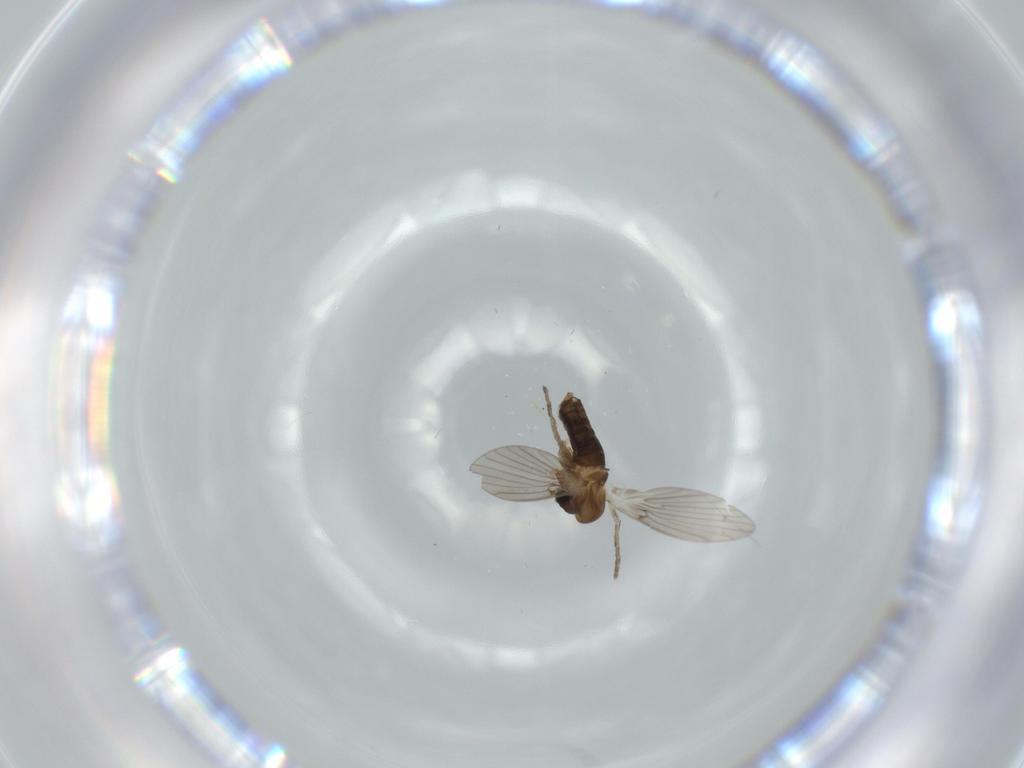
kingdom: Animalia
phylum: Arthropoda
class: Insecta
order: Diptera
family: Psychodidae
